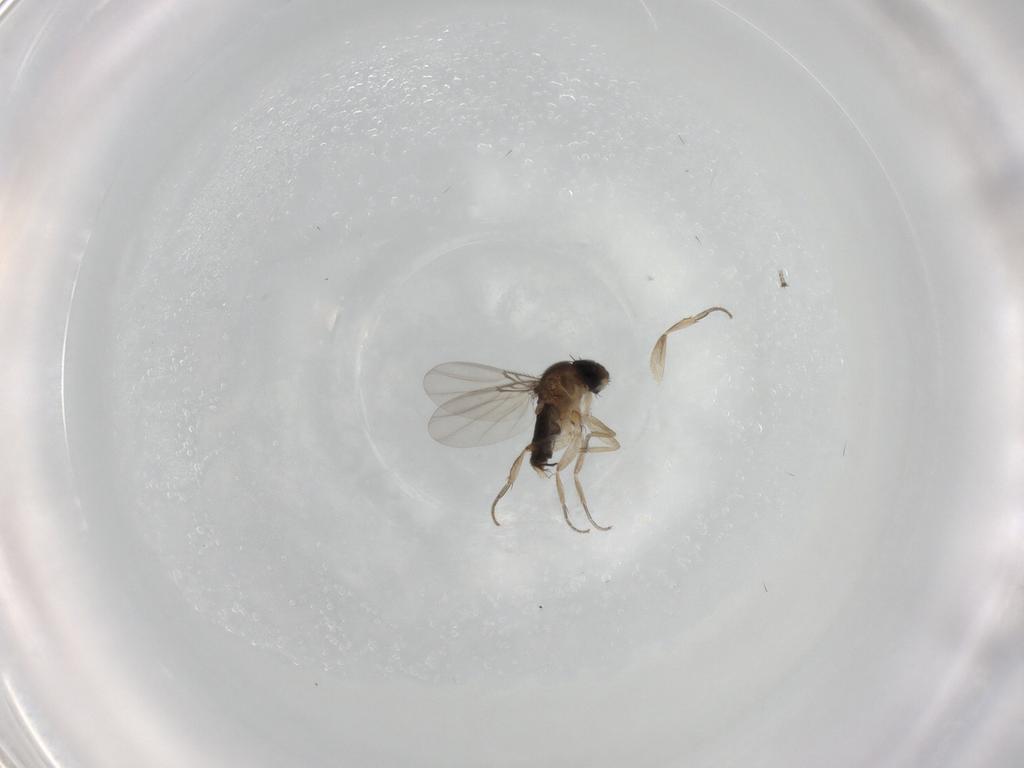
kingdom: Animalia
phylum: Arthropoda
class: Insecta
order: Diptera
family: Phoridae
